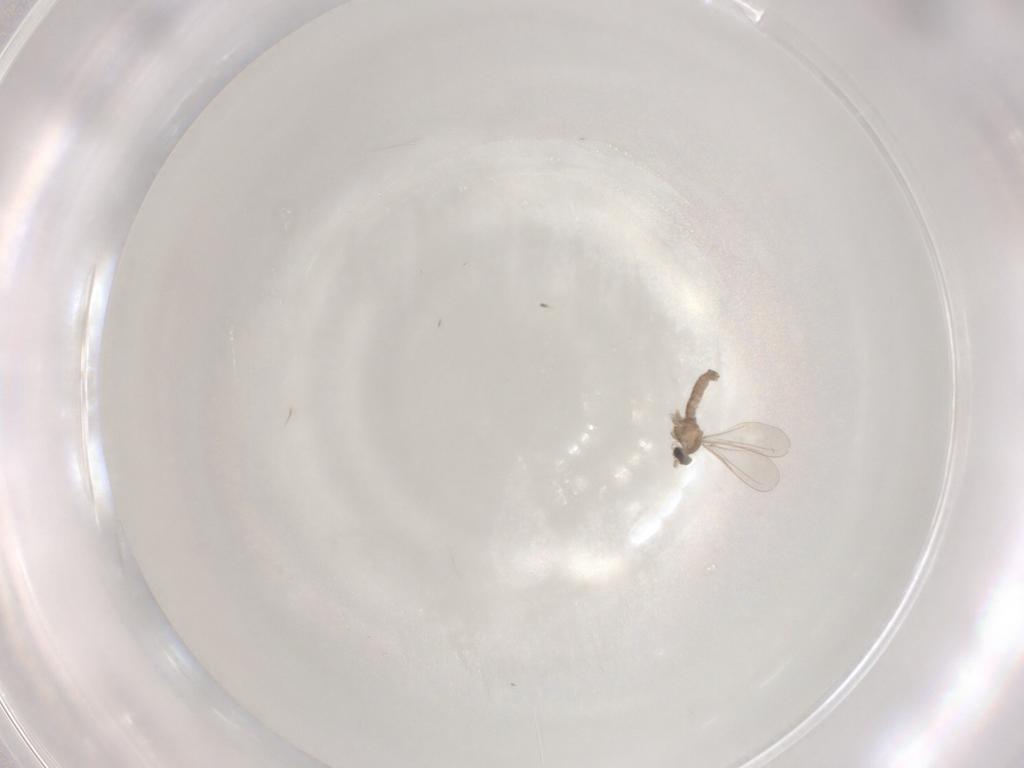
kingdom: Animalia
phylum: Arthropoda
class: Insecta
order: Diptera
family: Cecidomyiidae
